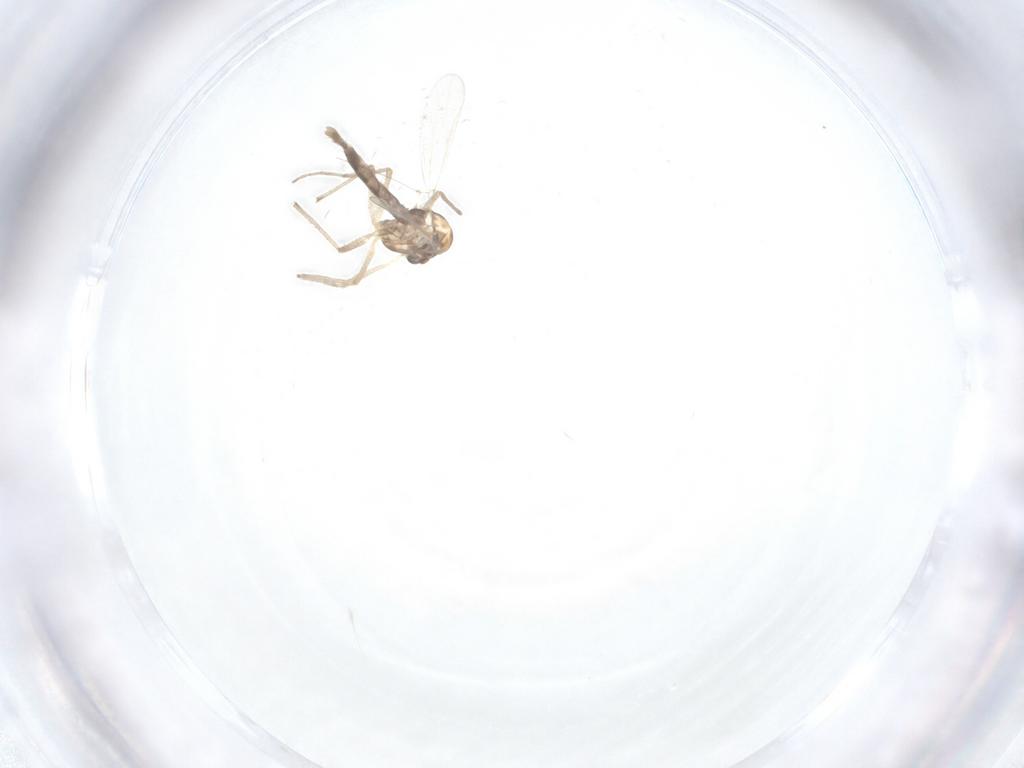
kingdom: Animalia
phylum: Arthropoda
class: Insecta
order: Diptera
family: Chironomidae
